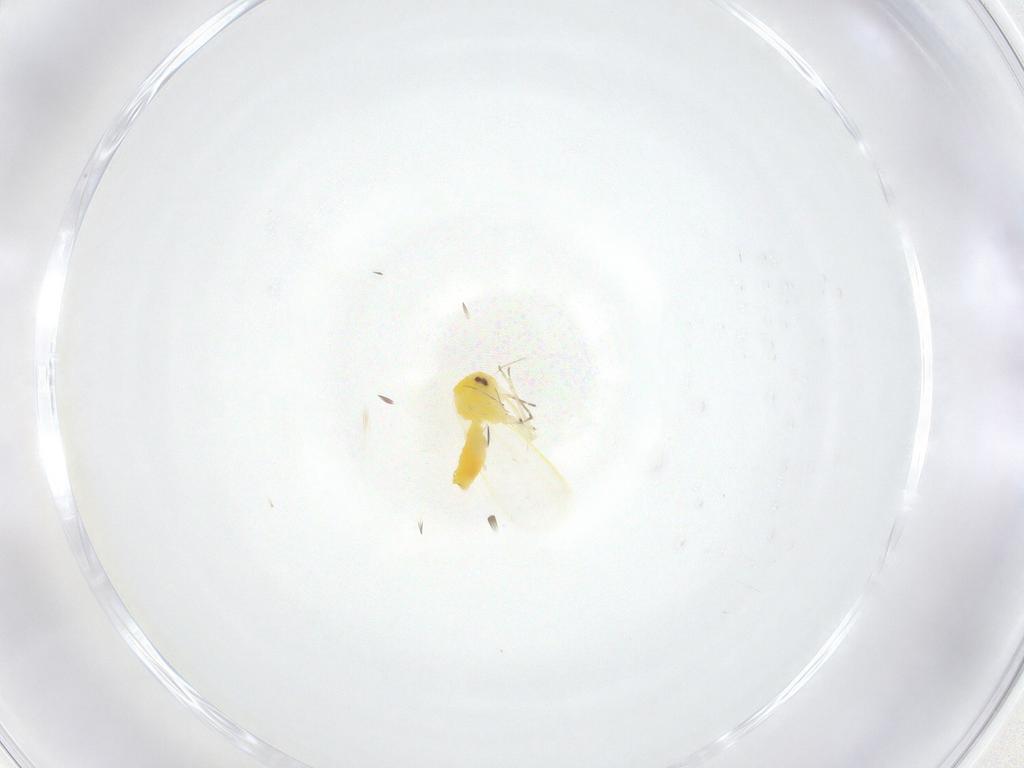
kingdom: Animalia
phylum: Arthropoda
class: Insecta
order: Hemiptera
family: Aleyrodidae
